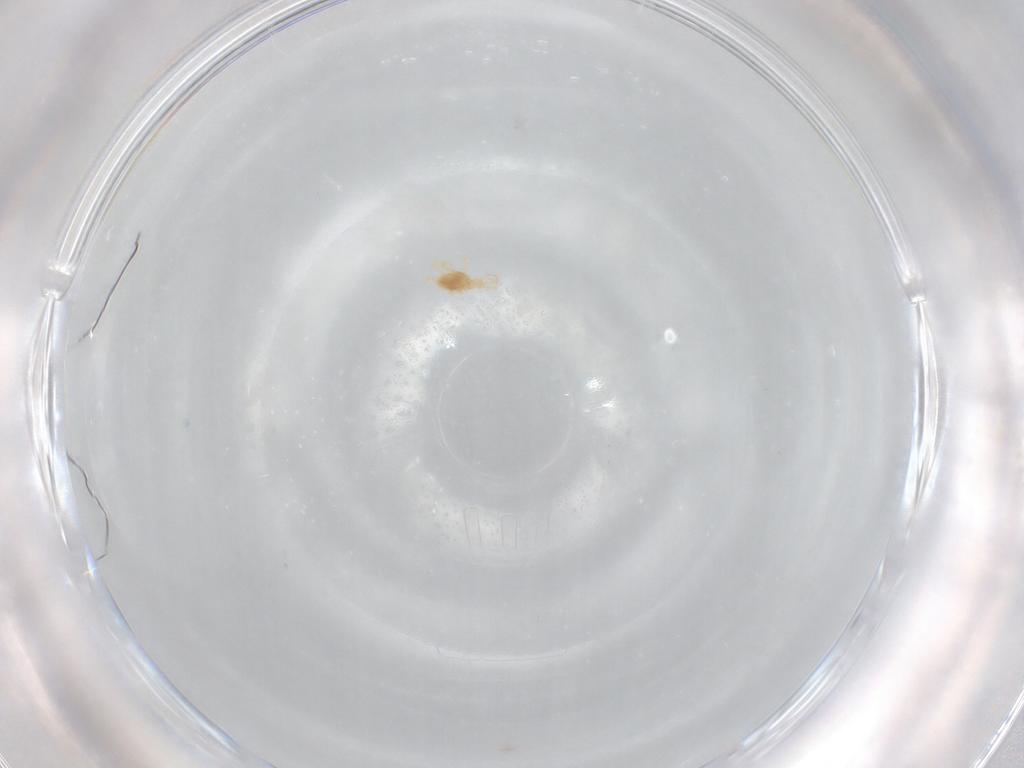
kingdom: Animalia
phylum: Arthropoda
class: Arachnida
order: Trombidiformes
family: Cunaxidae
